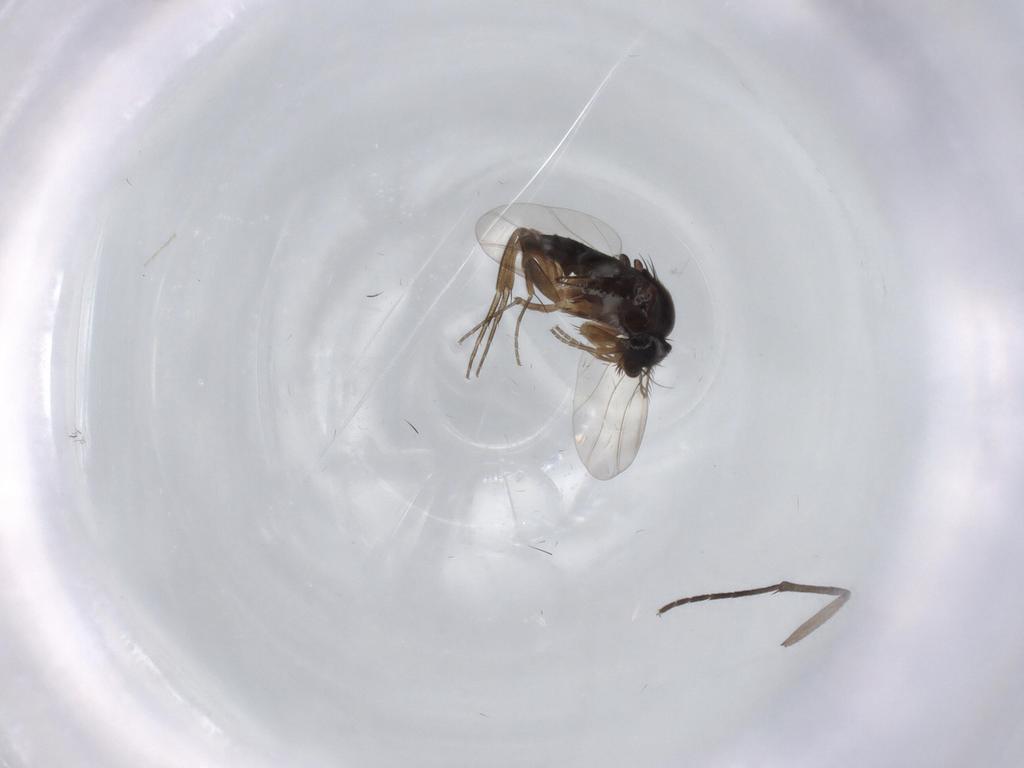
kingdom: Animalia
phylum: Arthropoda
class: Insecta
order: Diptera
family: Phoridae
